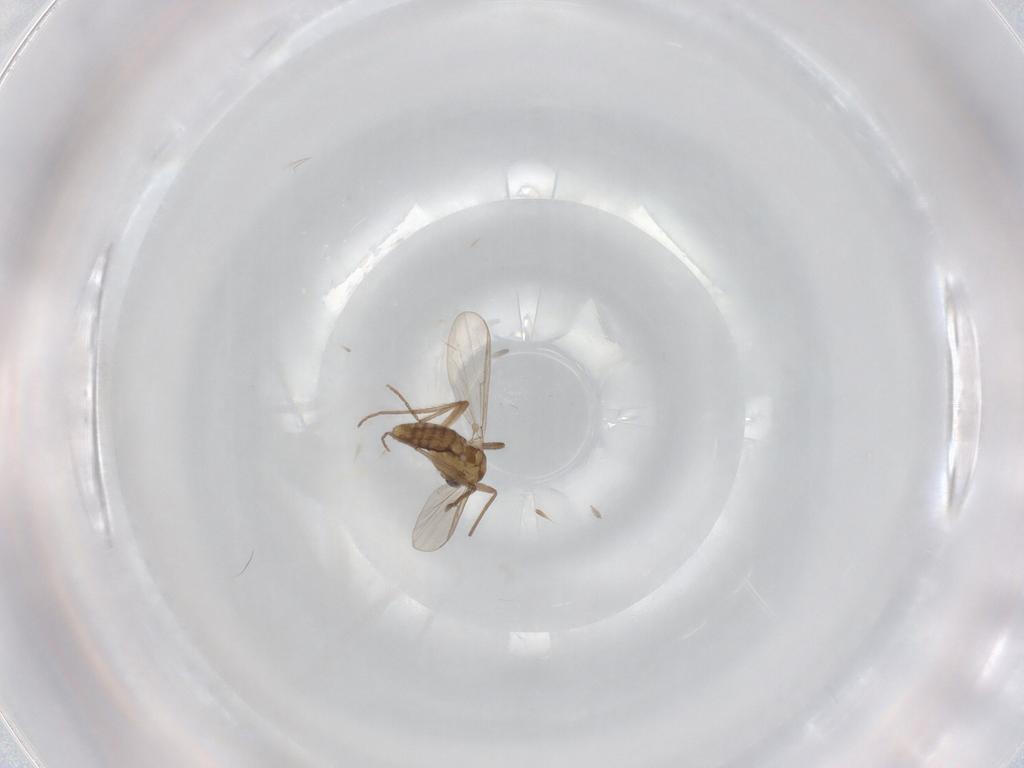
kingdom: Animalia
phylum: Arthropoda
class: Insecta
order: Diptera
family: Chironomidae
